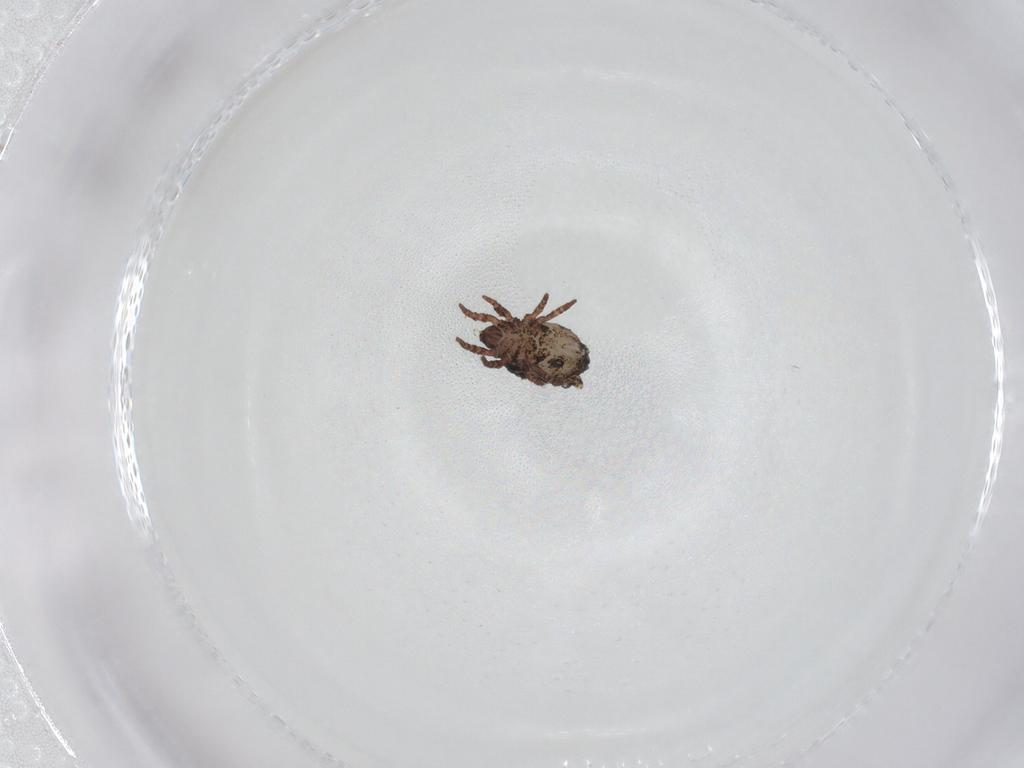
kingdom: Animalia
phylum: Arthropoda
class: Arachnida
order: Sarcoptiformes
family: Crotoniidae
